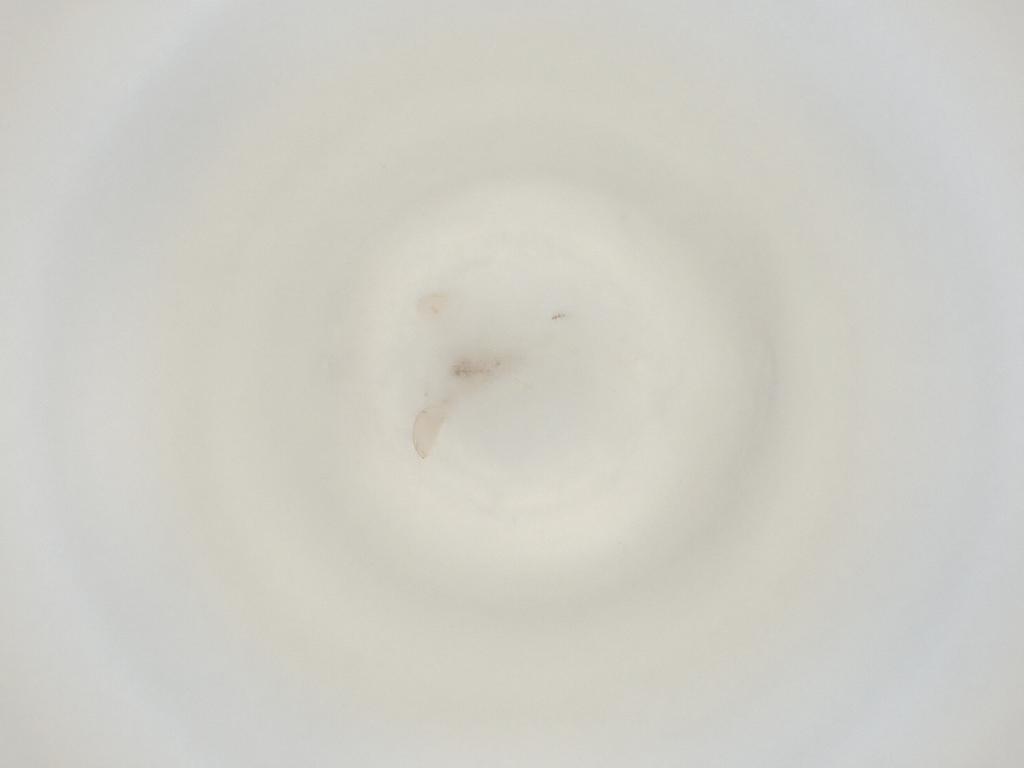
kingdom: Animalia
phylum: Arthropoda
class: Insecta
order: Diptera
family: Cecidomyiidae
